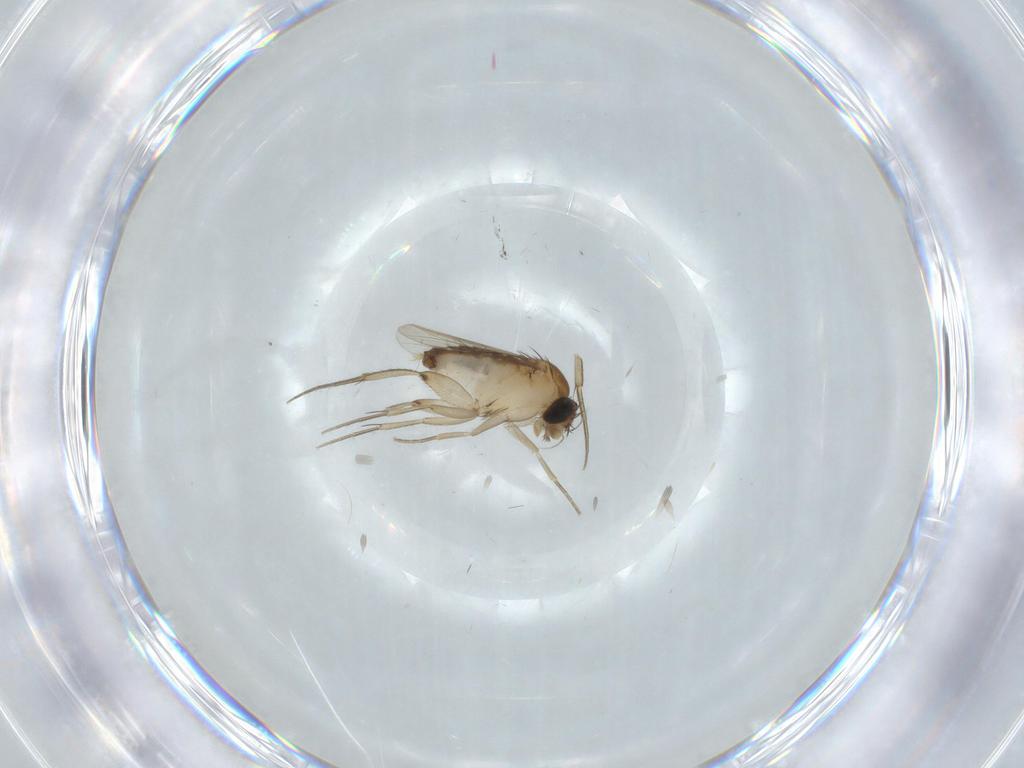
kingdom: Animalia
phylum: Arthropoda
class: Insecta
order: Diptera
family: Phoridae
